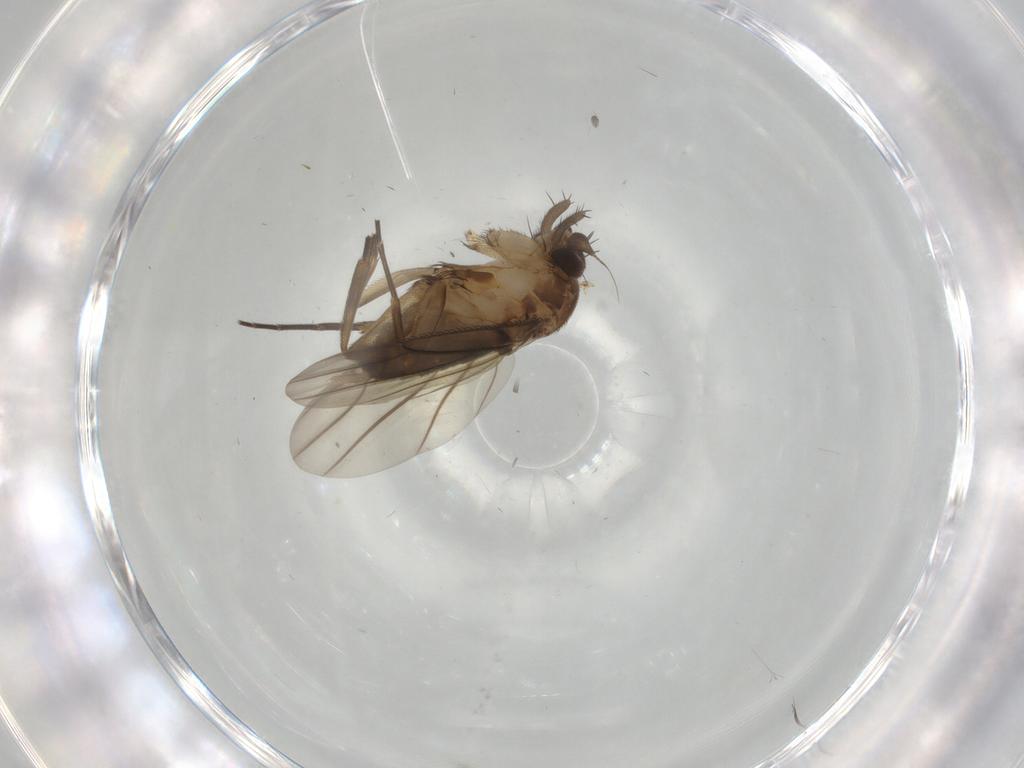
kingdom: Animalia
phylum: Arthropoda
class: Insecta
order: Diptera
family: Phoridae
